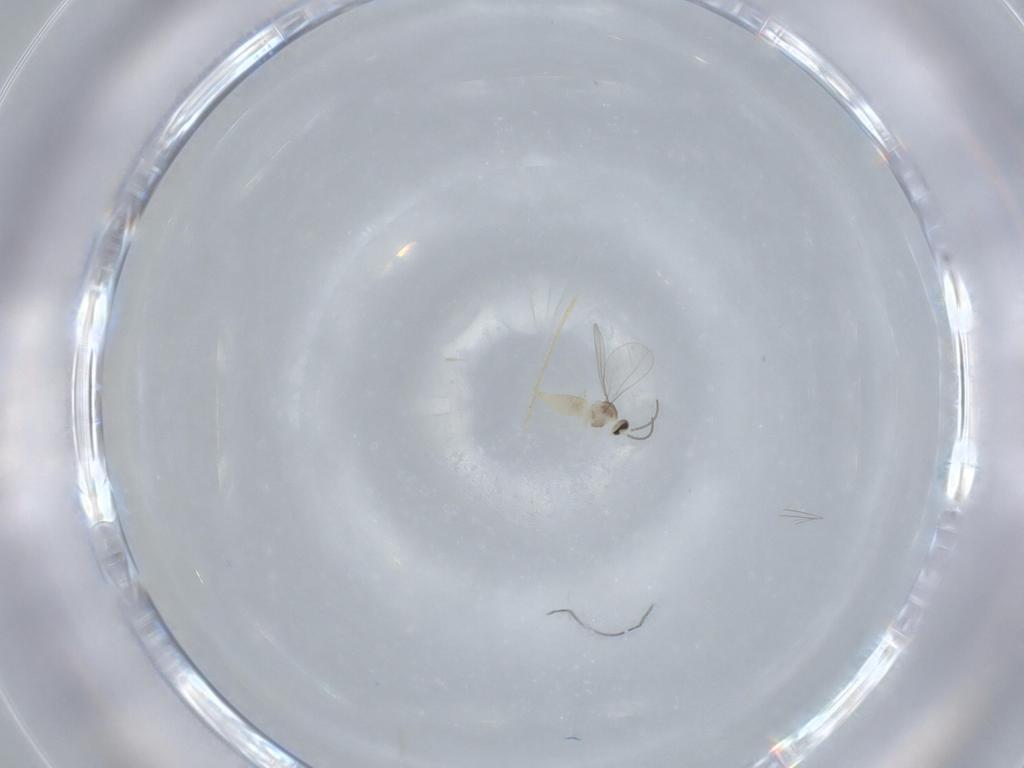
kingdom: Animalia
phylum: Arthropoda
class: Insecta
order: Diptera
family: Cecidomyiidae
